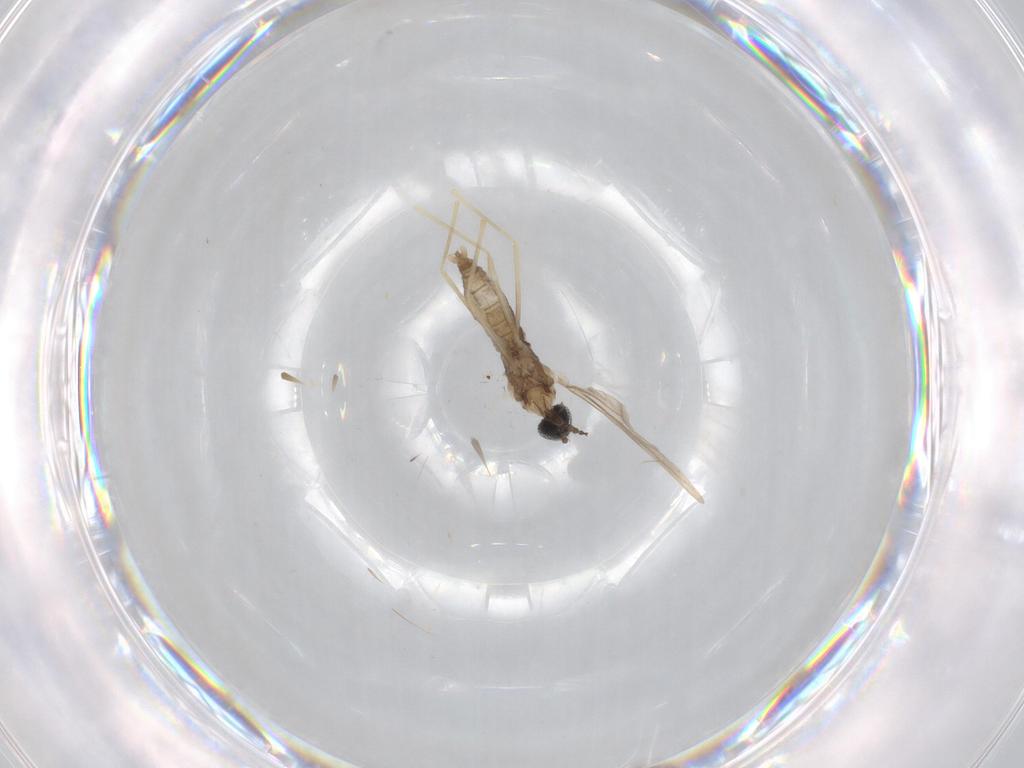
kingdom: Animalia
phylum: Arthropoda
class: Insecta
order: Diptera
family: Cecidomyiidae
